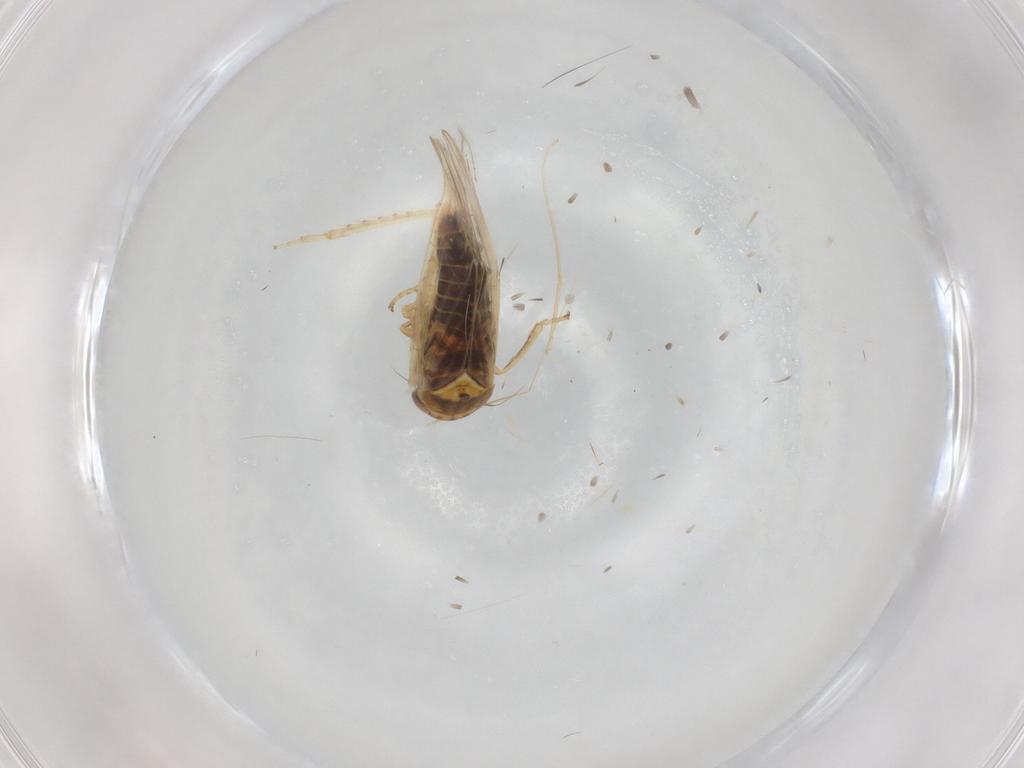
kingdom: Animalia
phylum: Arthropoda
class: Insecta
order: Hemiptera
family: Cicadellidae
